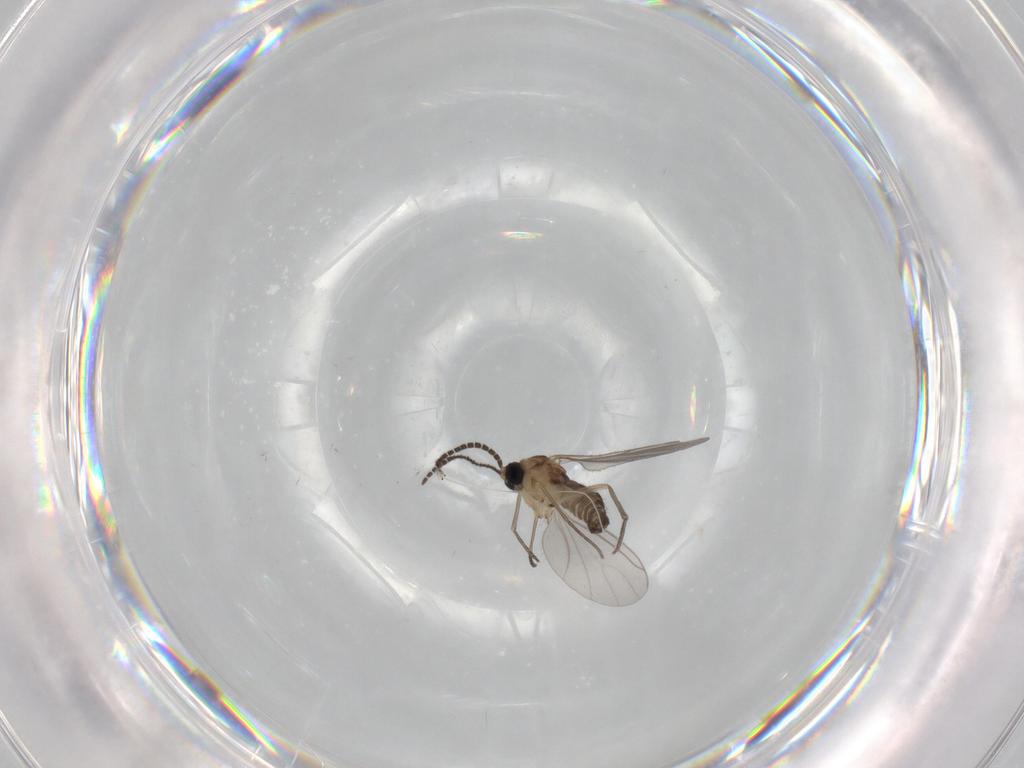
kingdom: Animalia
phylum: Arthropoda
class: Insecta
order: Diptera
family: Sciaridae
